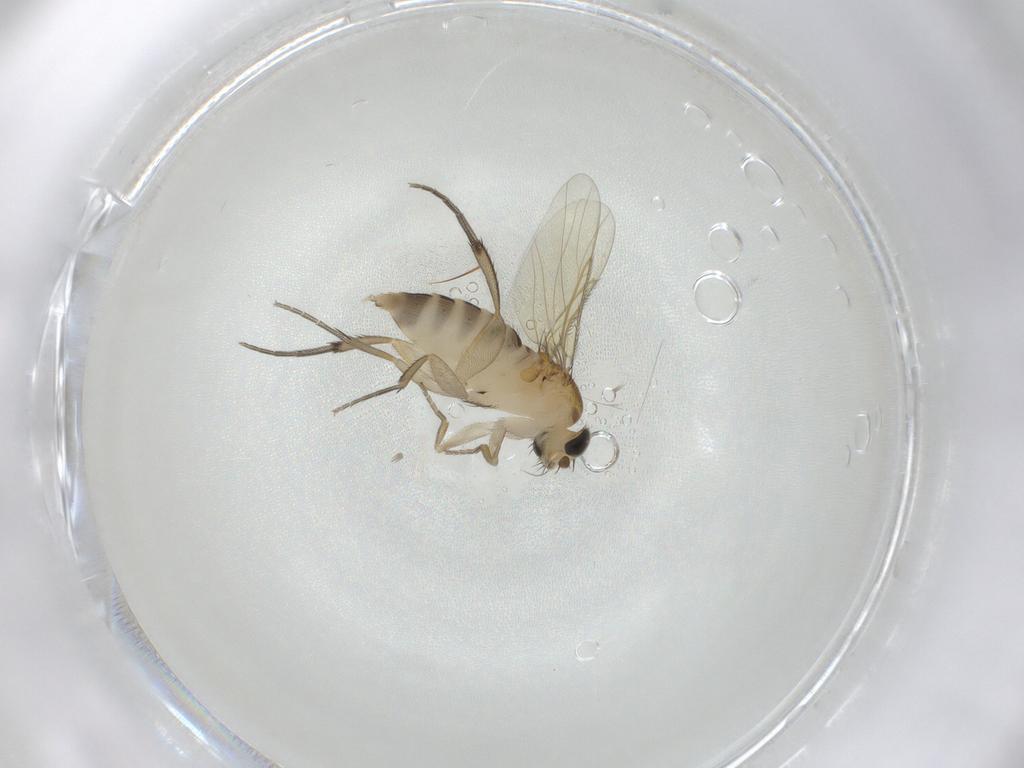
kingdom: Animalia
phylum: Arthropoda
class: Insecta
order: Diptera
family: Phoridae
